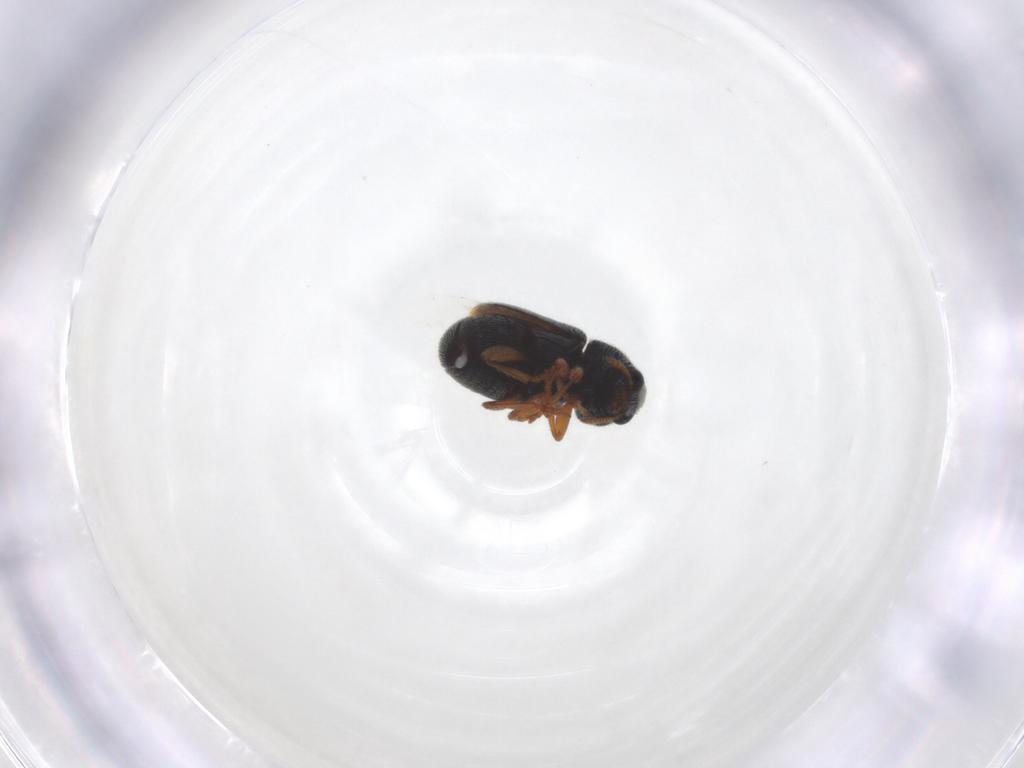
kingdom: Animalia
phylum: Arthropoda
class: Insecta
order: Coleoptera
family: Anthribidae
